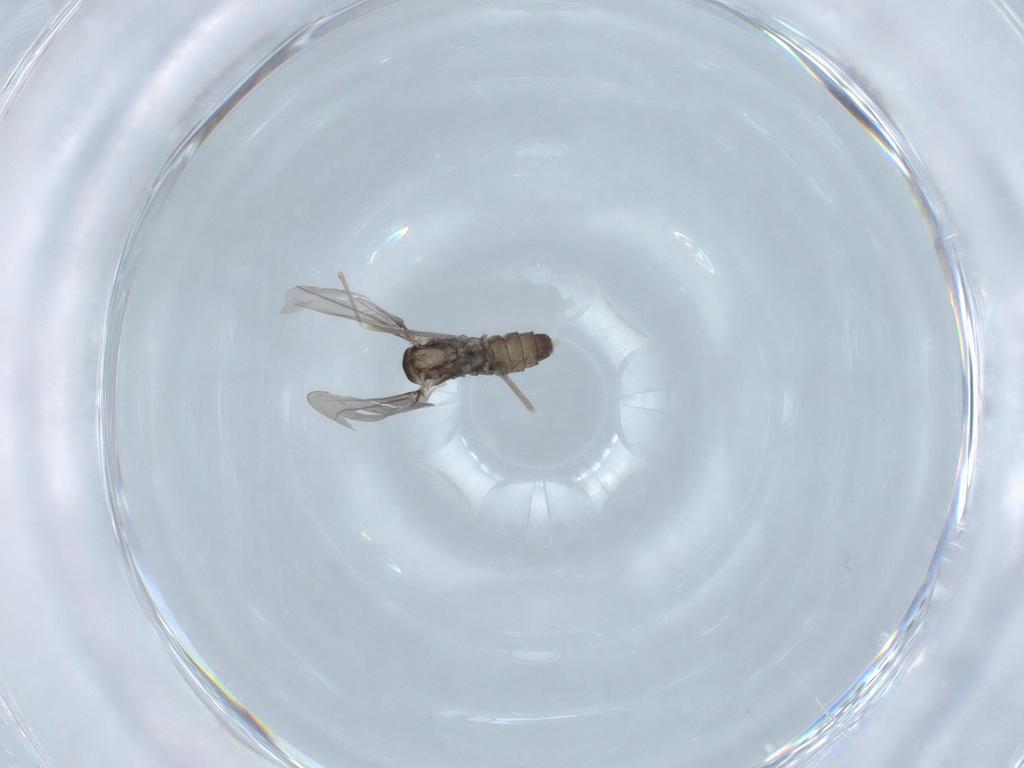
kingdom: Animalia
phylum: Arthropoda
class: Insecta
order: Diptera
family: Cecidomyiidae
